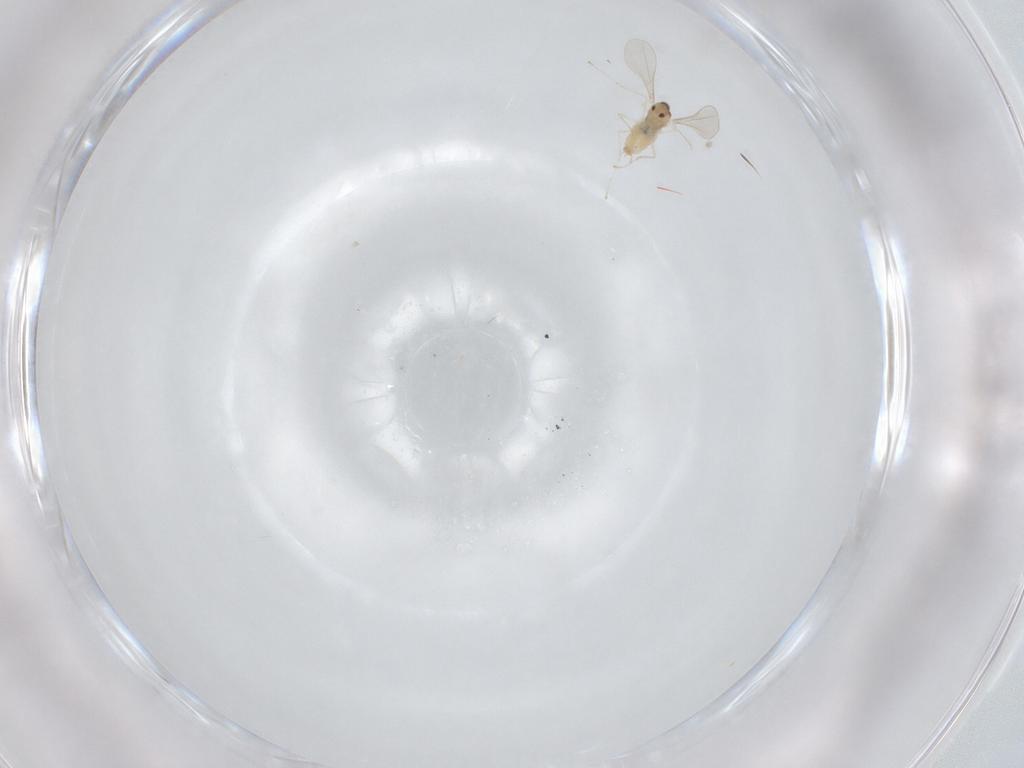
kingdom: Animalia
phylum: Arthropoda
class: Insecta
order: Diptera
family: Cecidomyiidae
